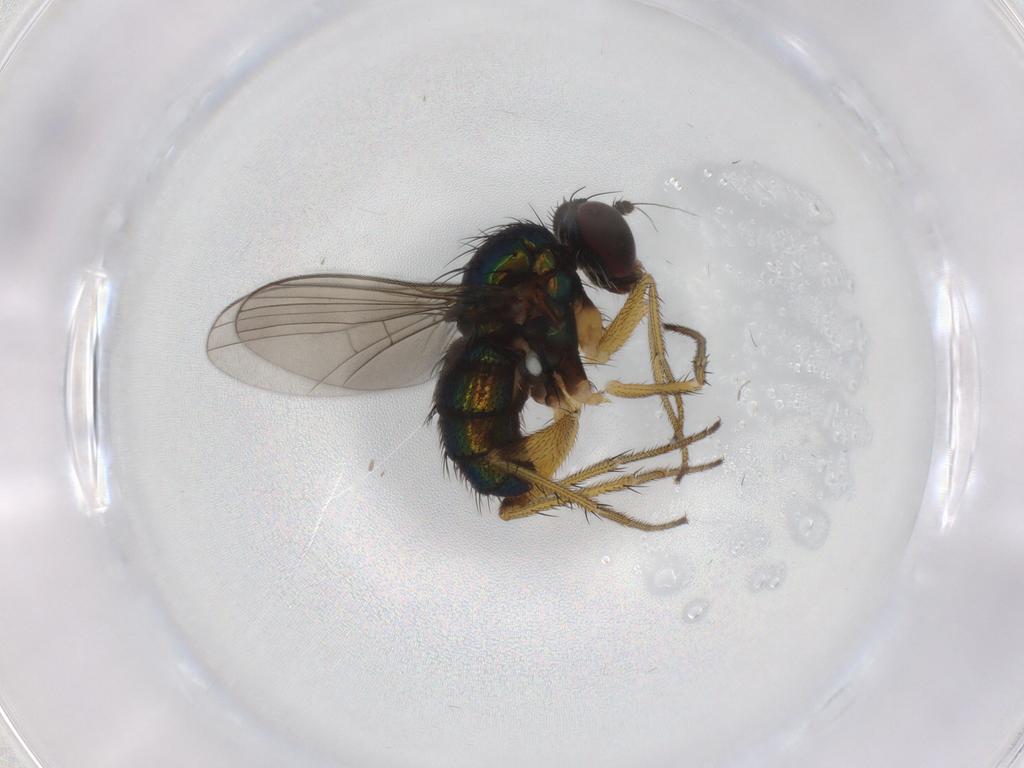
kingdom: Animalia
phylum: Arthropoda
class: Insecta
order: Diptera
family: Dolichopodidae
